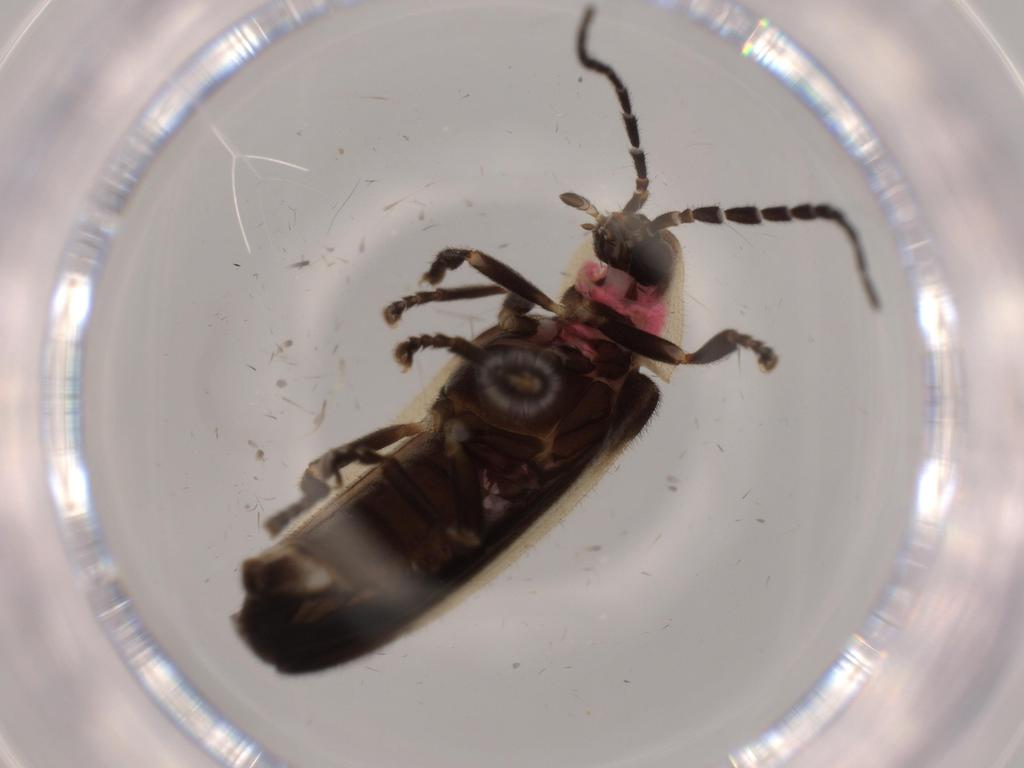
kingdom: Animalia
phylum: Arthropoda
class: Insecta
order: Coleoptera
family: Lampyridae
